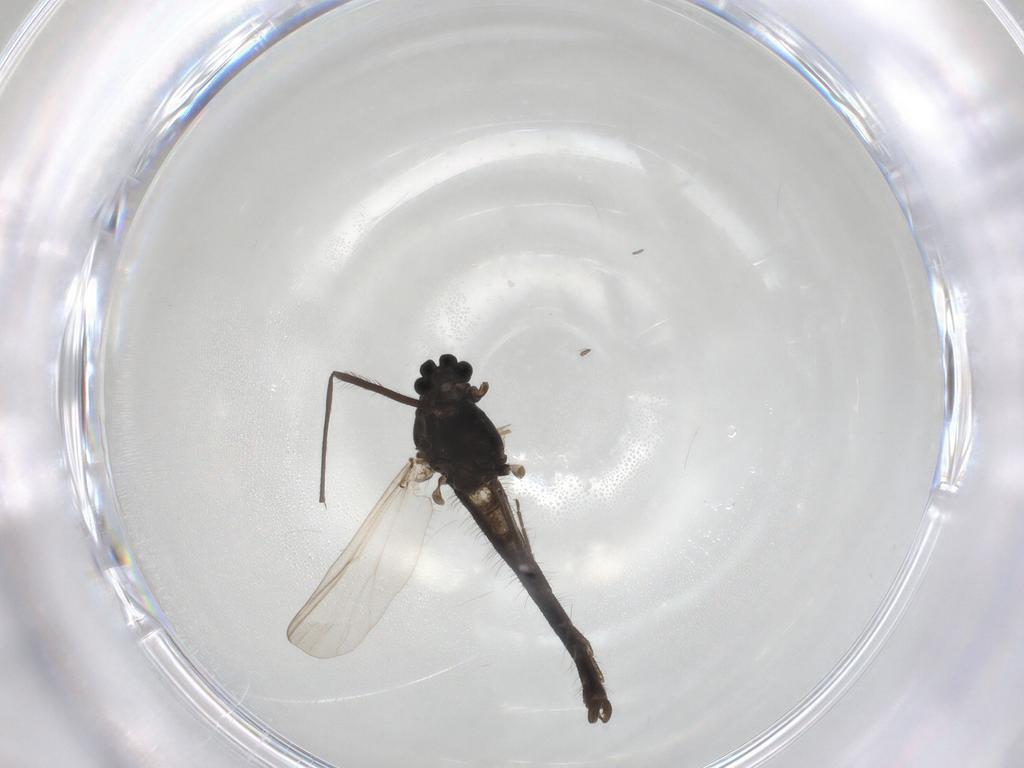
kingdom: Animalia
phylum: Arthropoda
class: Insecta
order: Diptera
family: Chironomidae
